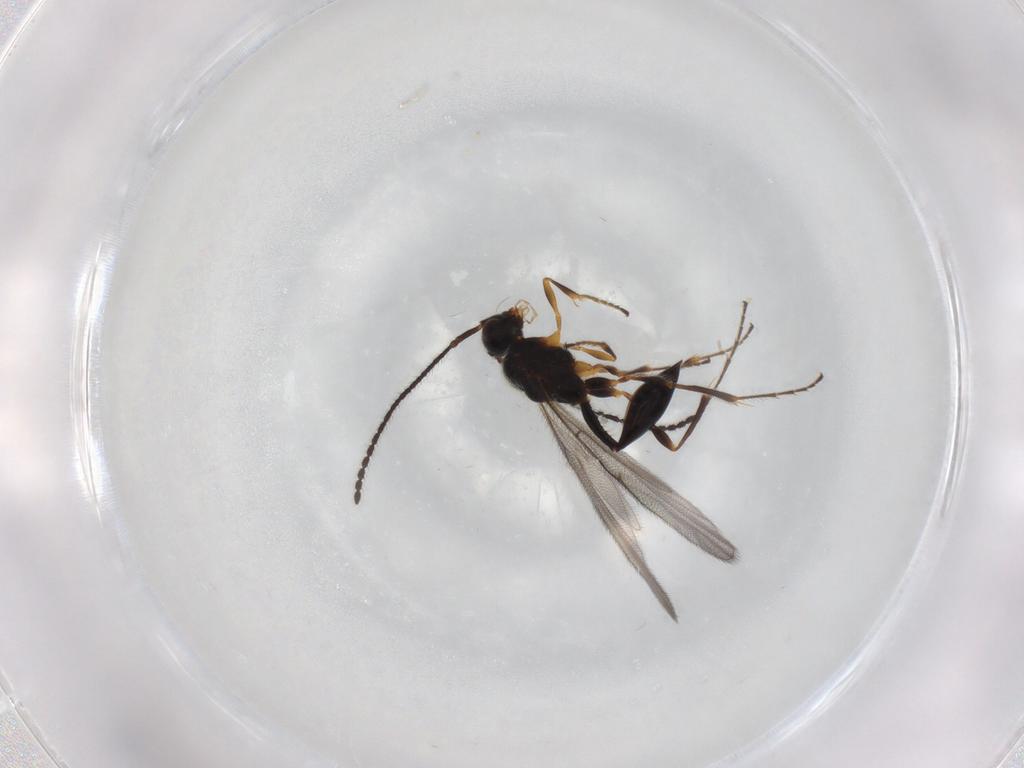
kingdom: Animalia
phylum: Arthropoda
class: Insecta
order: Hymenoptera
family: Diapriidae
